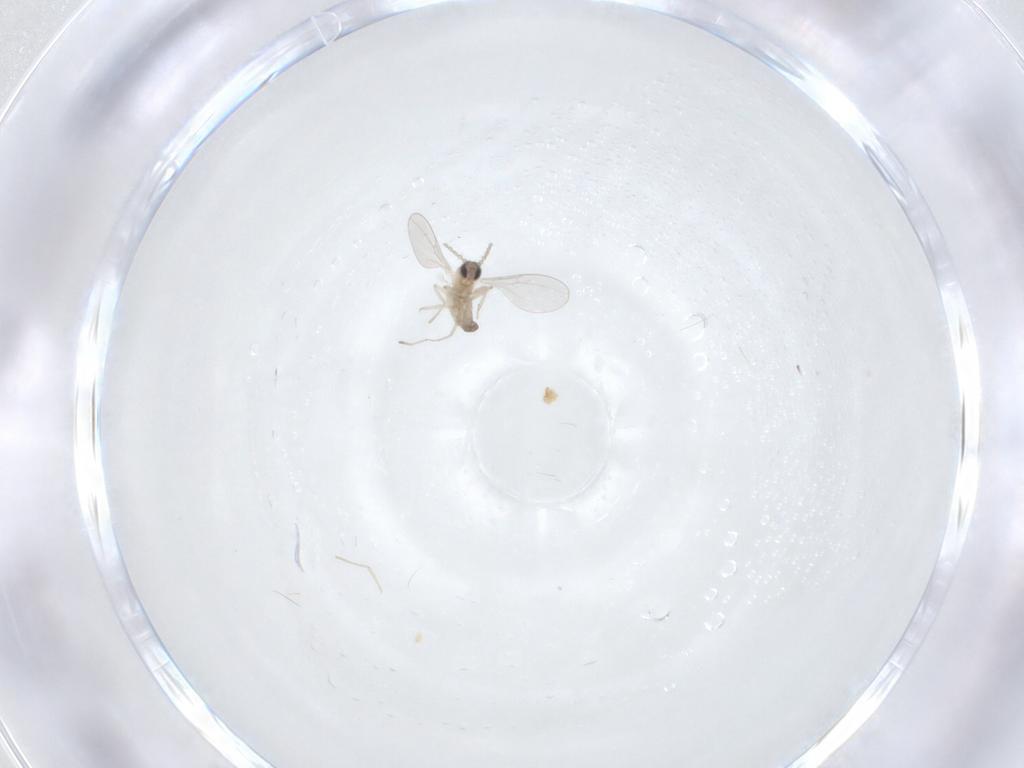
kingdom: Animalia
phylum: Arthropoda
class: Insecta
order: Diptera
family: Cecidomyiidae
